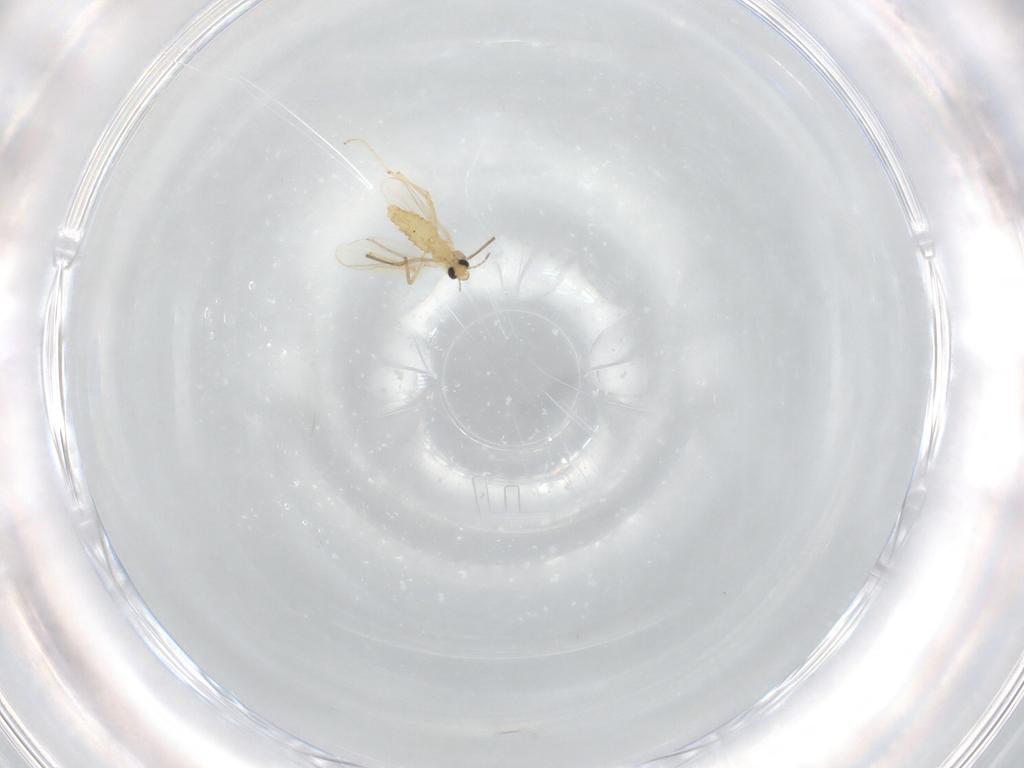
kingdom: Animalia
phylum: Arthropoda
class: Insecta
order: Diptera
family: Chironomidae
